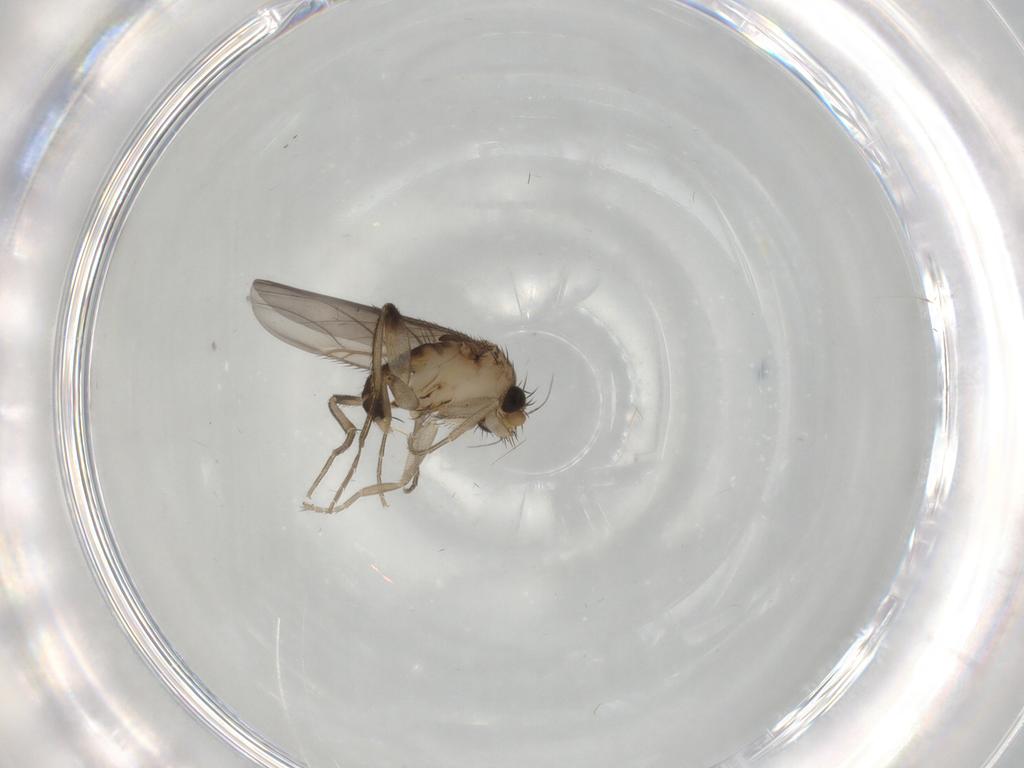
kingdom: Animalia
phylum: Arthropoda
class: Insecta
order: Diptera
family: Phoridae
